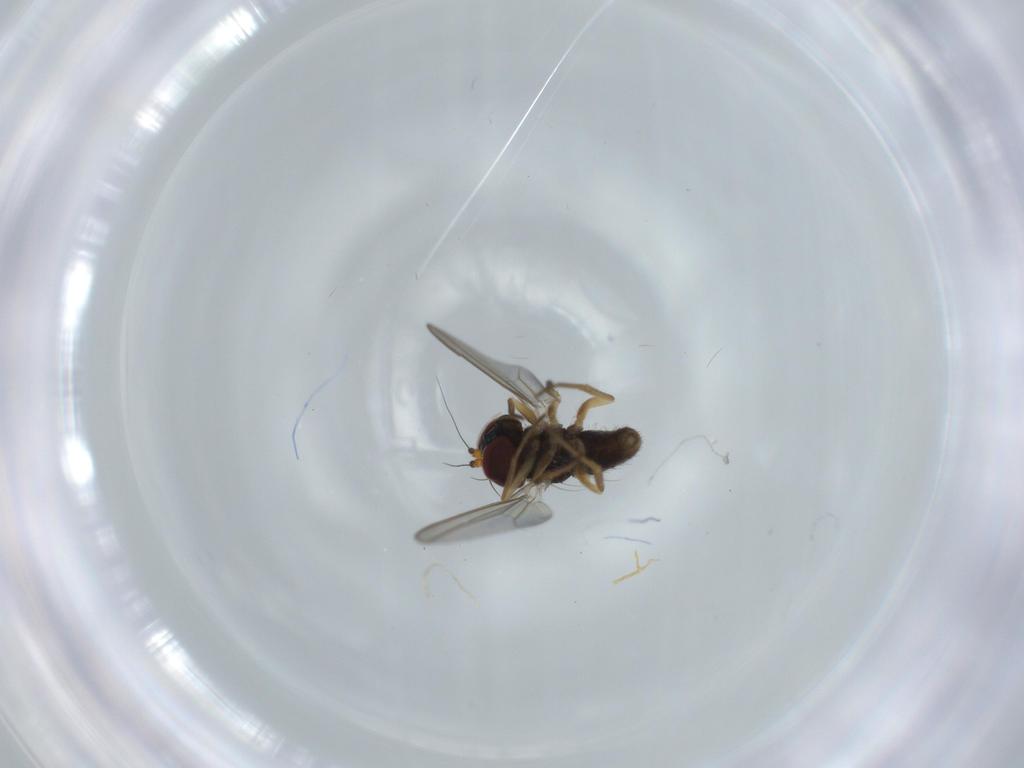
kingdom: Animalia
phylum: Arthropoda
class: Insecta
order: Diptera
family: Dolichopodidae
